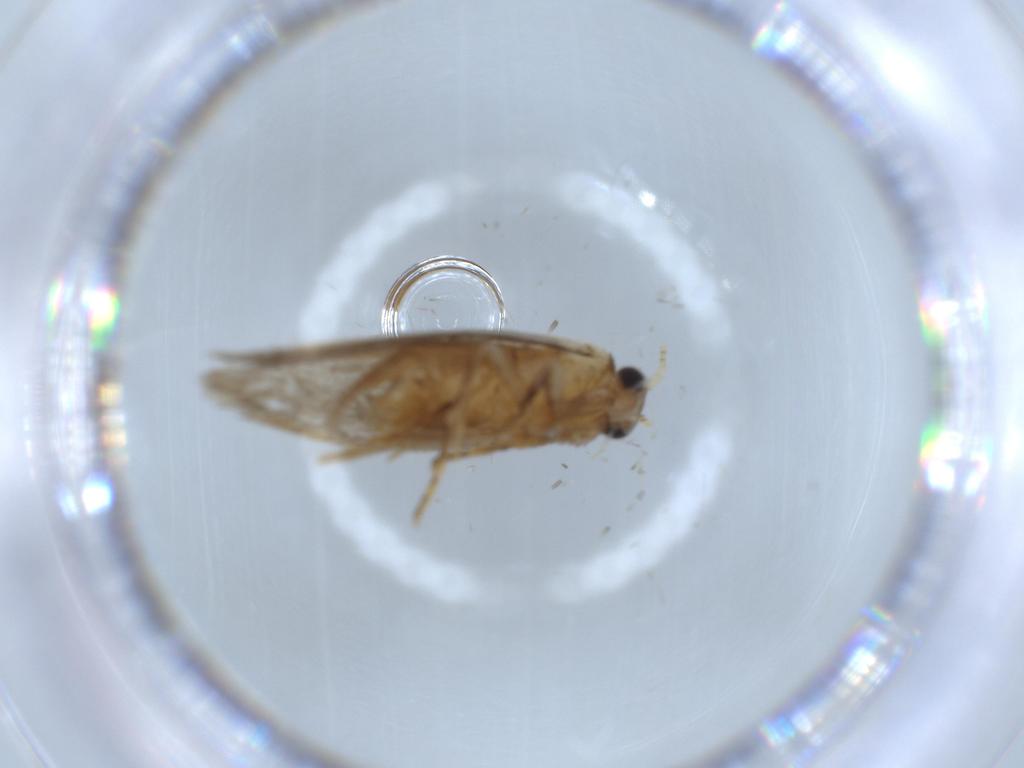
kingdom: Animalia
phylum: Arthropoda
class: Insecta
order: Lepidoptera
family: Tineidae
